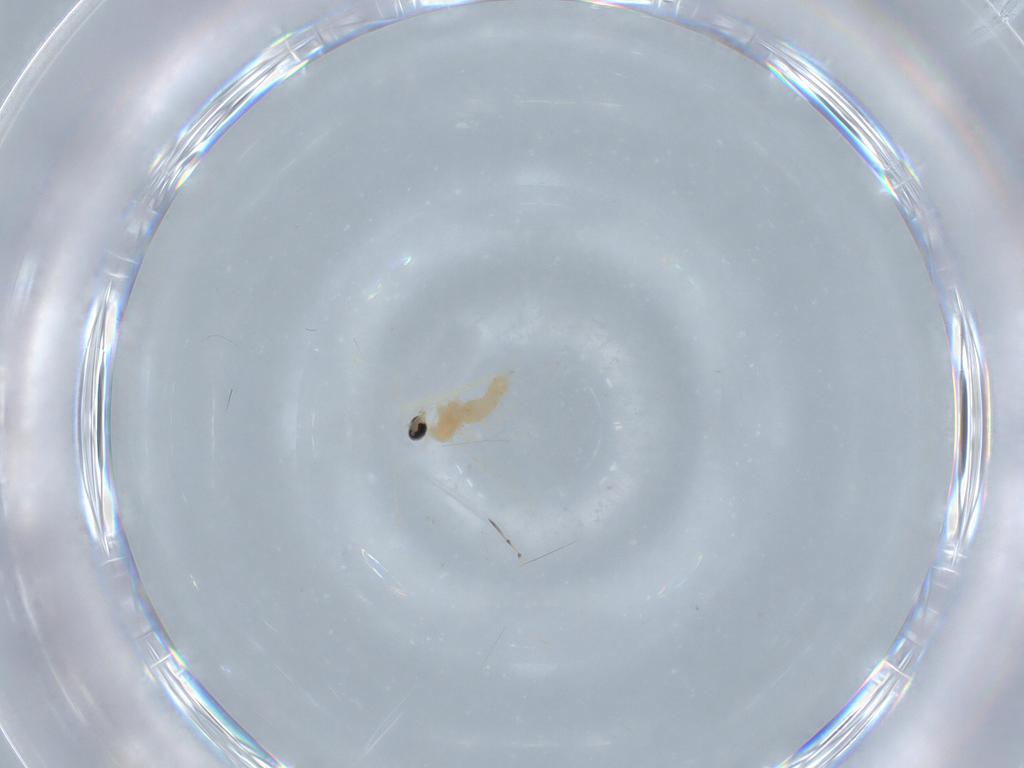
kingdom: Animalia
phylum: Arthropoda
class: Insecta
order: Diptera
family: Cecidomyiidae
